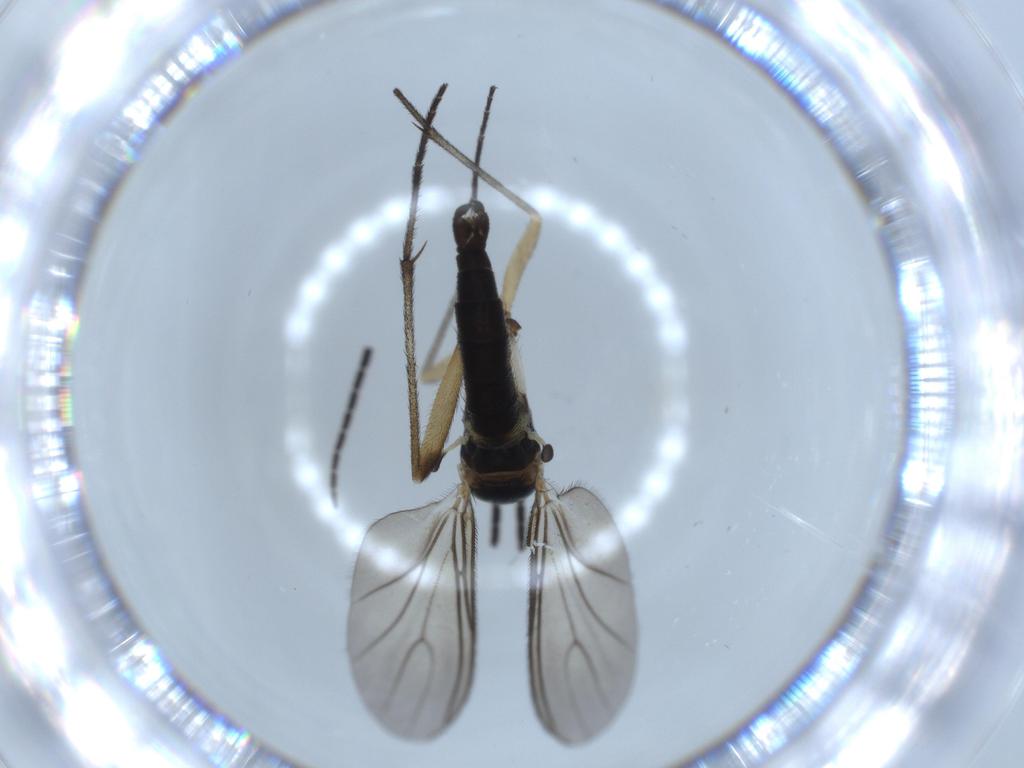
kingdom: Animalia
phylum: Arthropoda
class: Insecta
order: Diptera
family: Sciaridae
